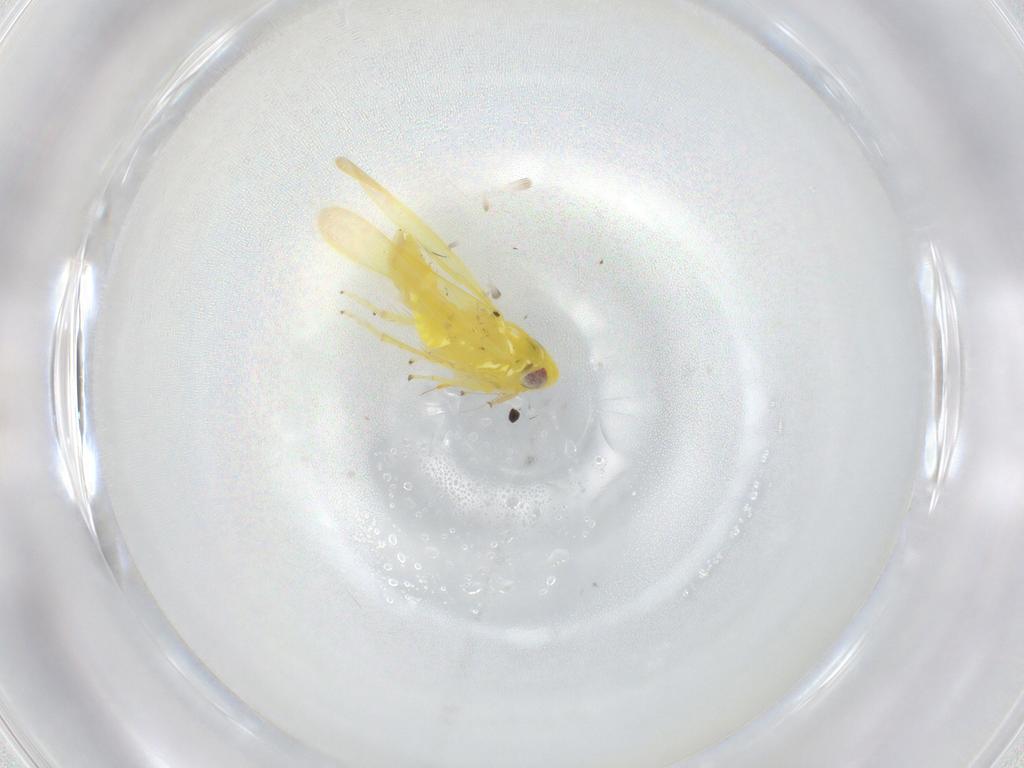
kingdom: Animalia
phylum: Arthropoda
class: Insecta
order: Hemiptera
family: Cicadellidae
